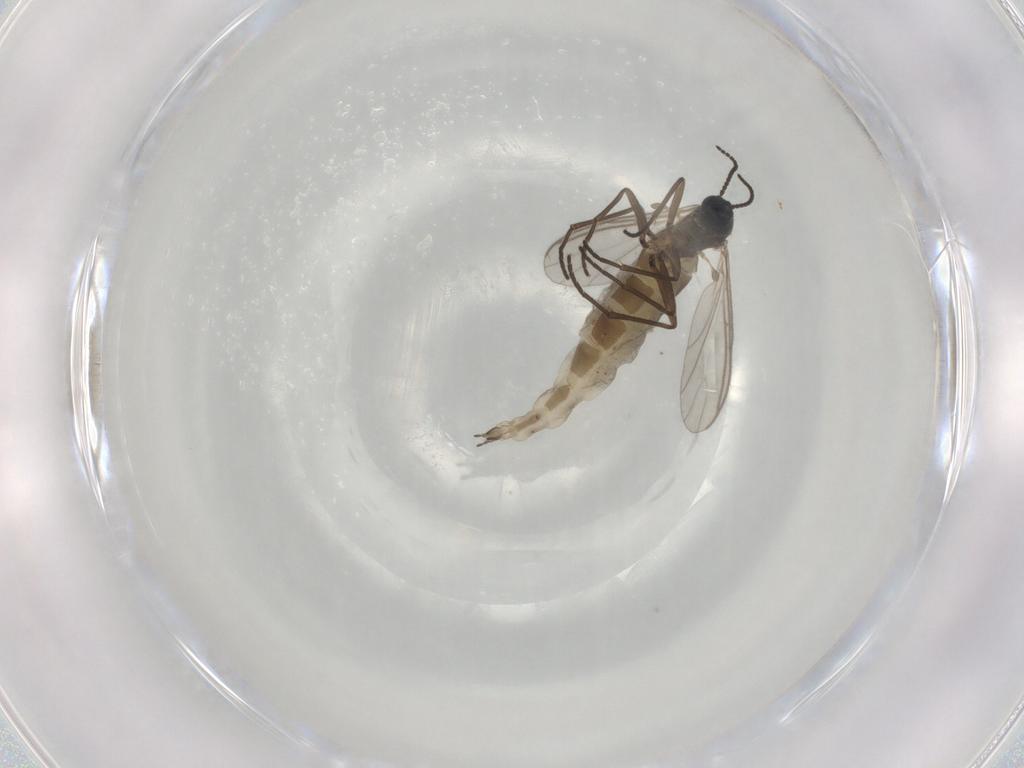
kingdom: Animalia
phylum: Arthropoda
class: Insecta
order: Diptera
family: Sciaridae
